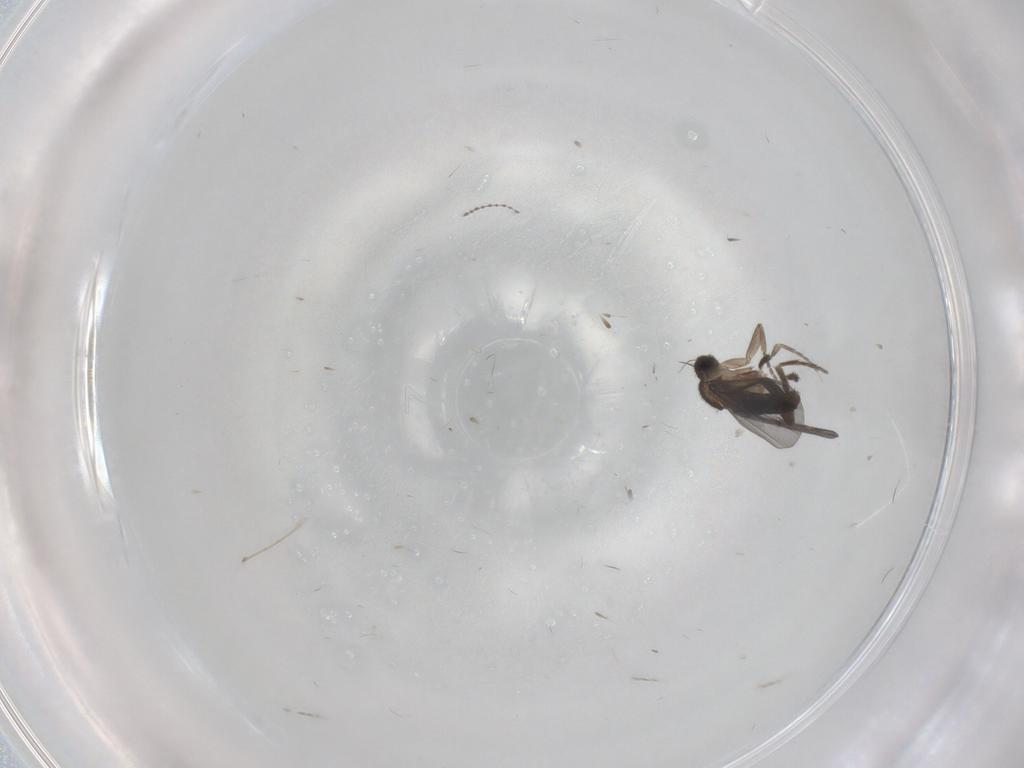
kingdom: Animalia
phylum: Arthropoda
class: Insecta
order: Diptera
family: Phoridae
